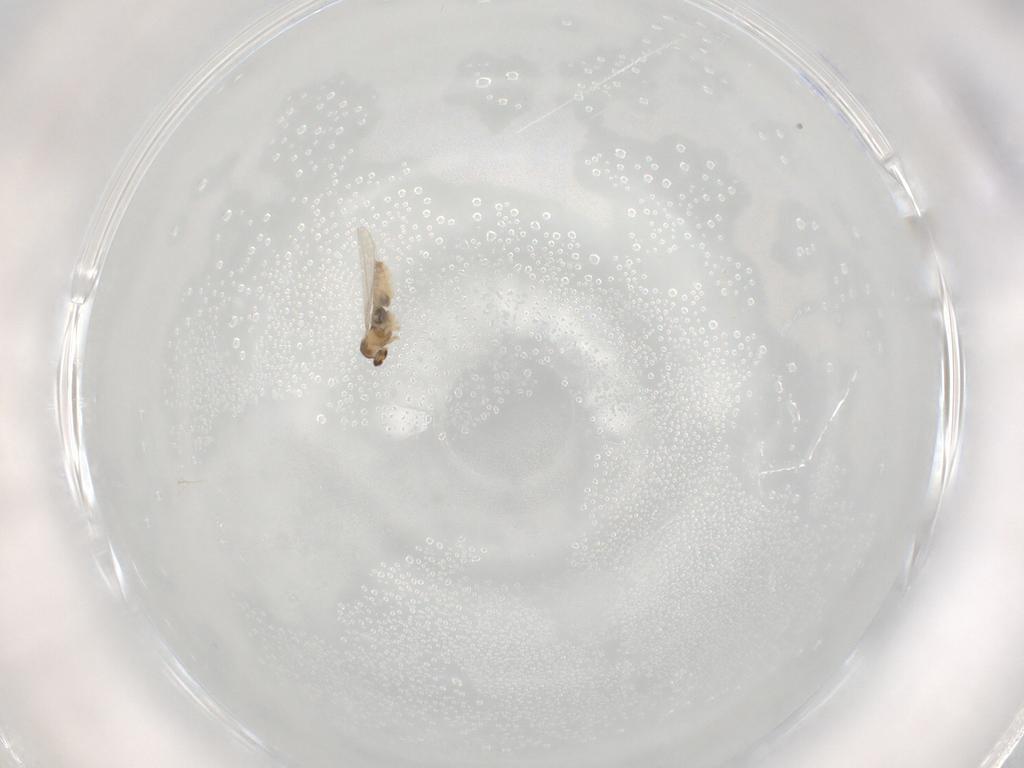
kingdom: Animalia
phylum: Arthropoda
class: Insecta
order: Diptera
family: Cecidomyiidae
